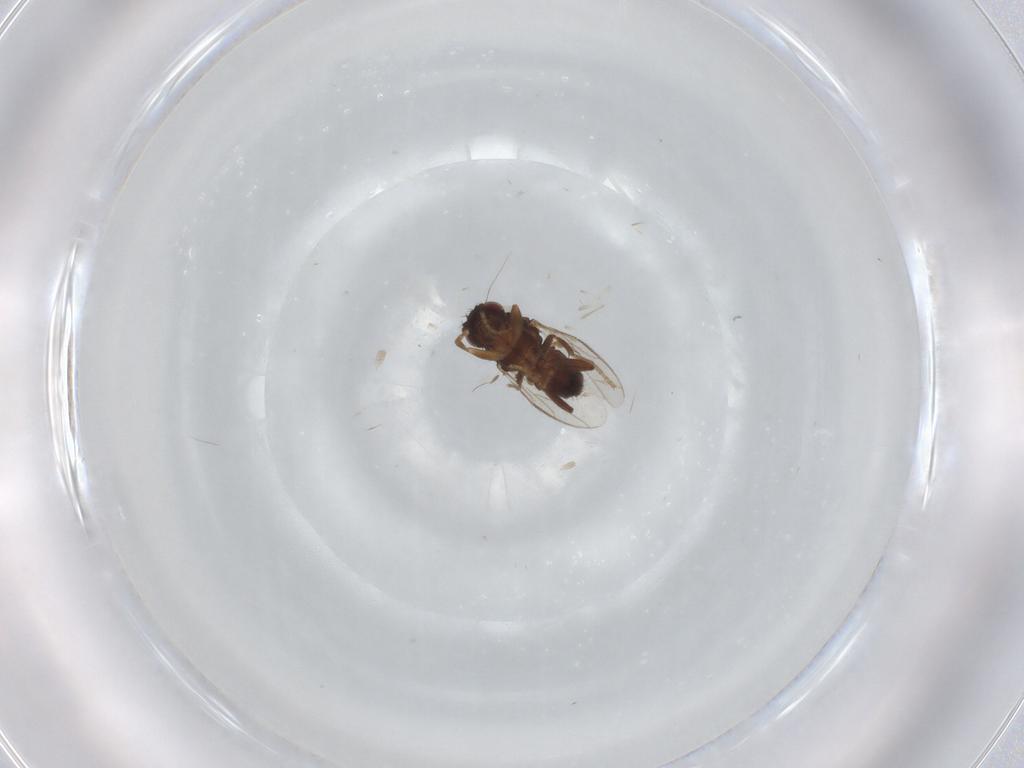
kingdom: Animalia
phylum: Arthropoda
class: Insecta
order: Diptera
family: Sphaeroceridae
